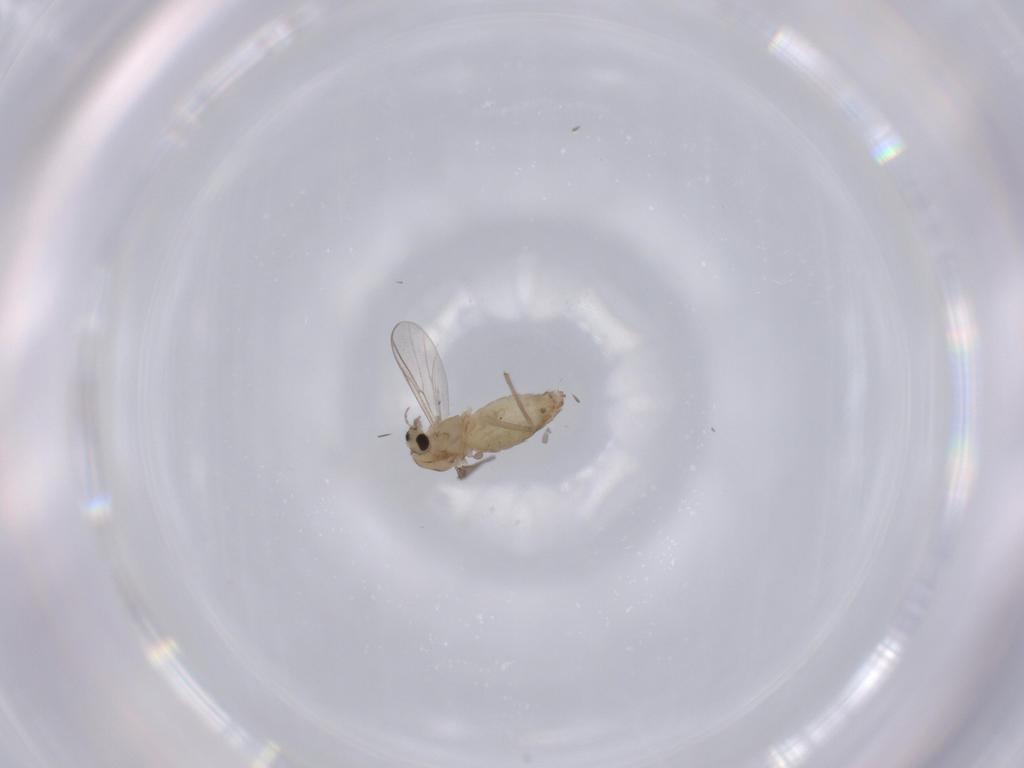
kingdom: Animalia
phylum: Arthropoda
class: Insecta
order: Diptera
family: Chironomidae
